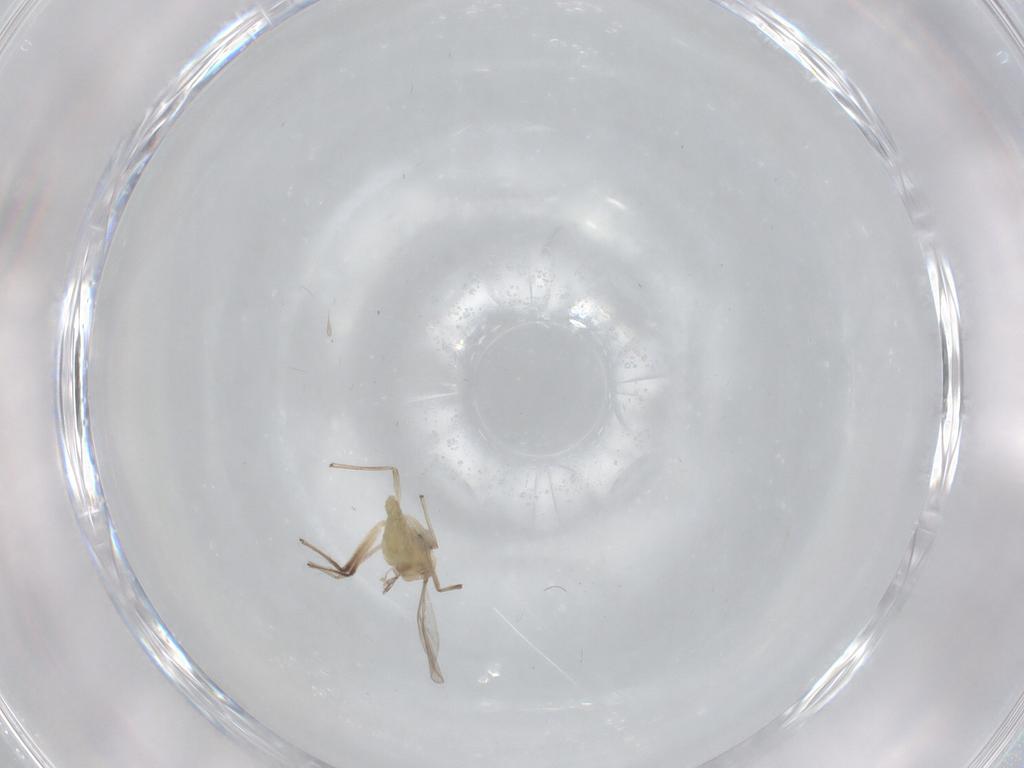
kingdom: Animalia
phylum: Arthropoda
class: Insecta
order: Diptera
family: Chironomidae
